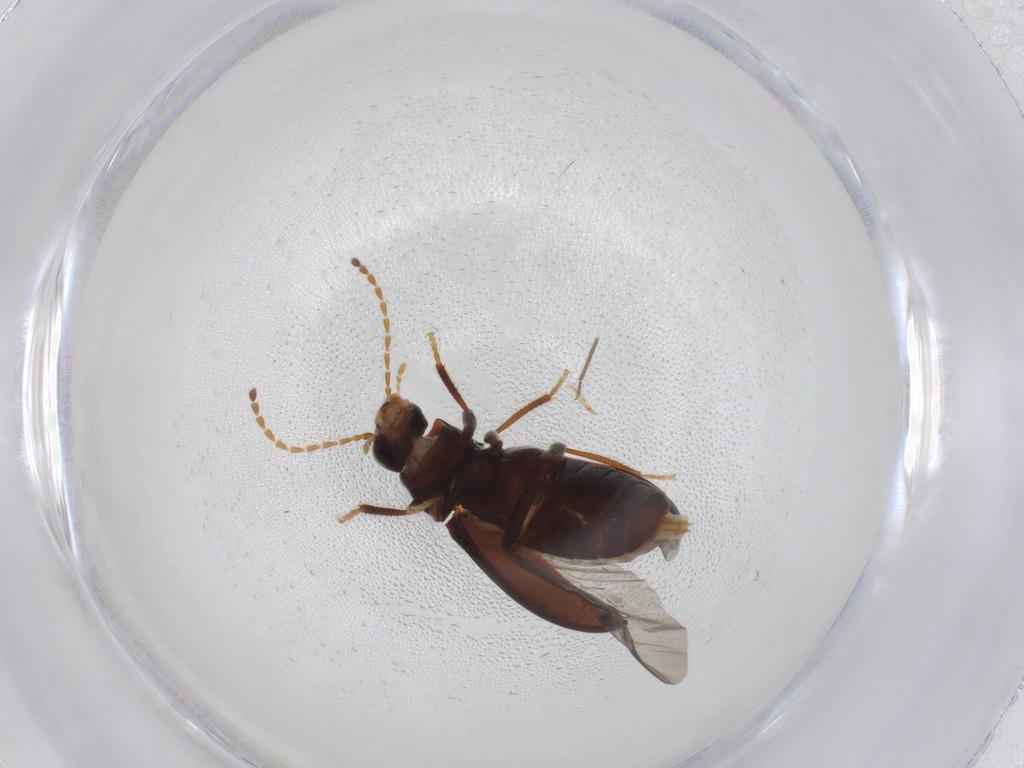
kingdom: Animalia
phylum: Arthropoda
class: Insecta
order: Coleoptera
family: Ptilodactylidae
